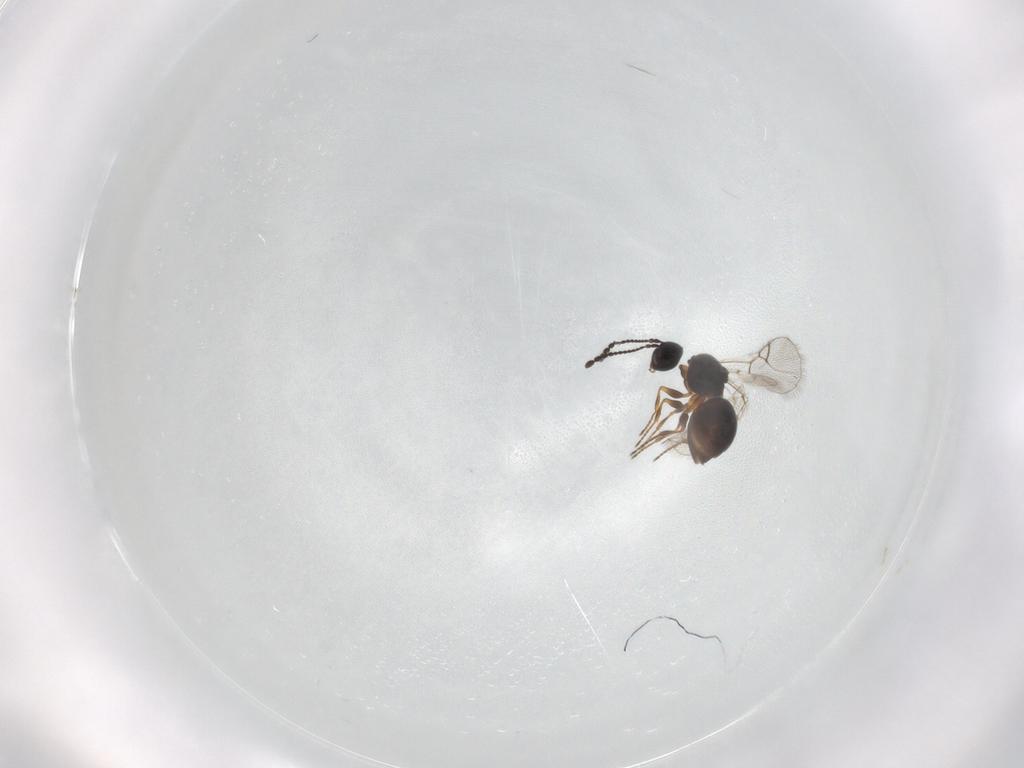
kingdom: Animalia
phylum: Arthropoda
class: Insecta
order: Hymenoptera
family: Figitidae
